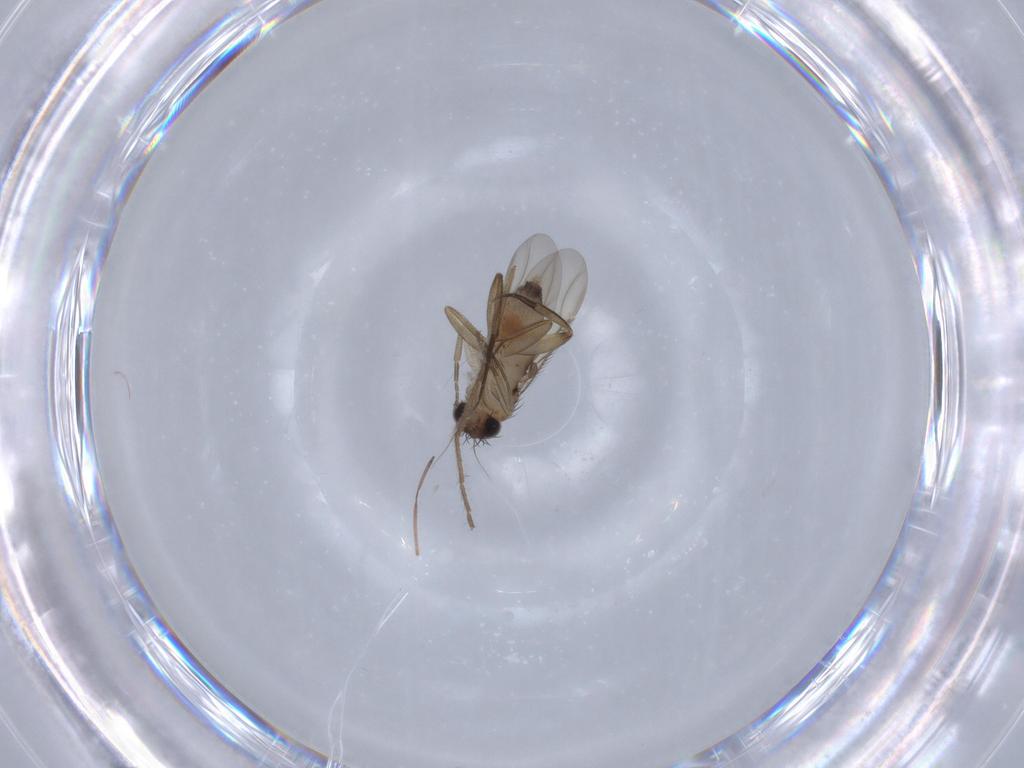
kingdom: Animalia
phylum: Arthropoda
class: Insecta
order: Diptera
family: Phoridae
